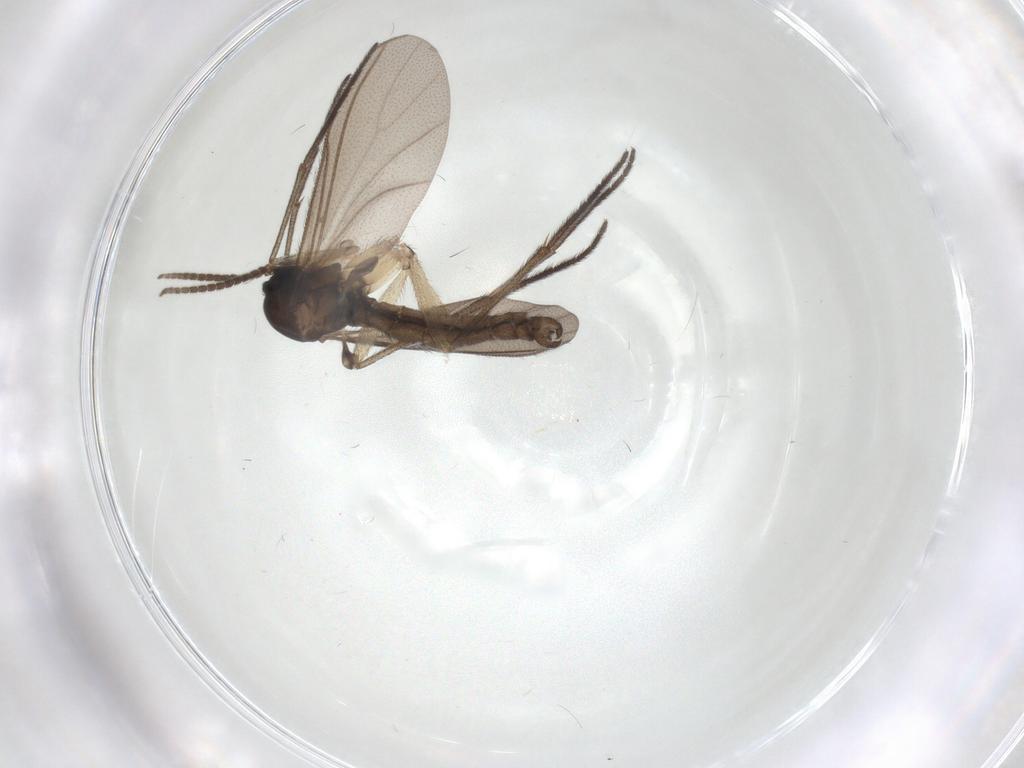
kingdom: Animalia
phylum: Arthropoda
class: Insecta
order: Diptera
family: Sciaridae
